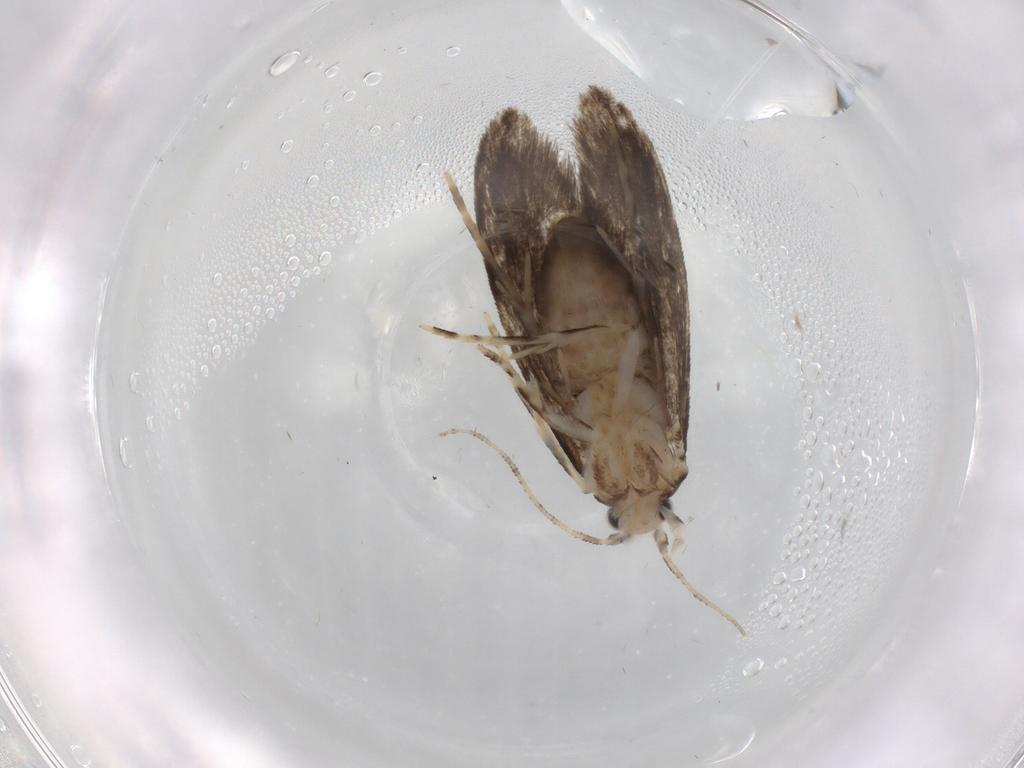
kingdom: Animalia
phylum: Arthropoda
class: Insecta
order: Lepidoptera
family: Tineidae
